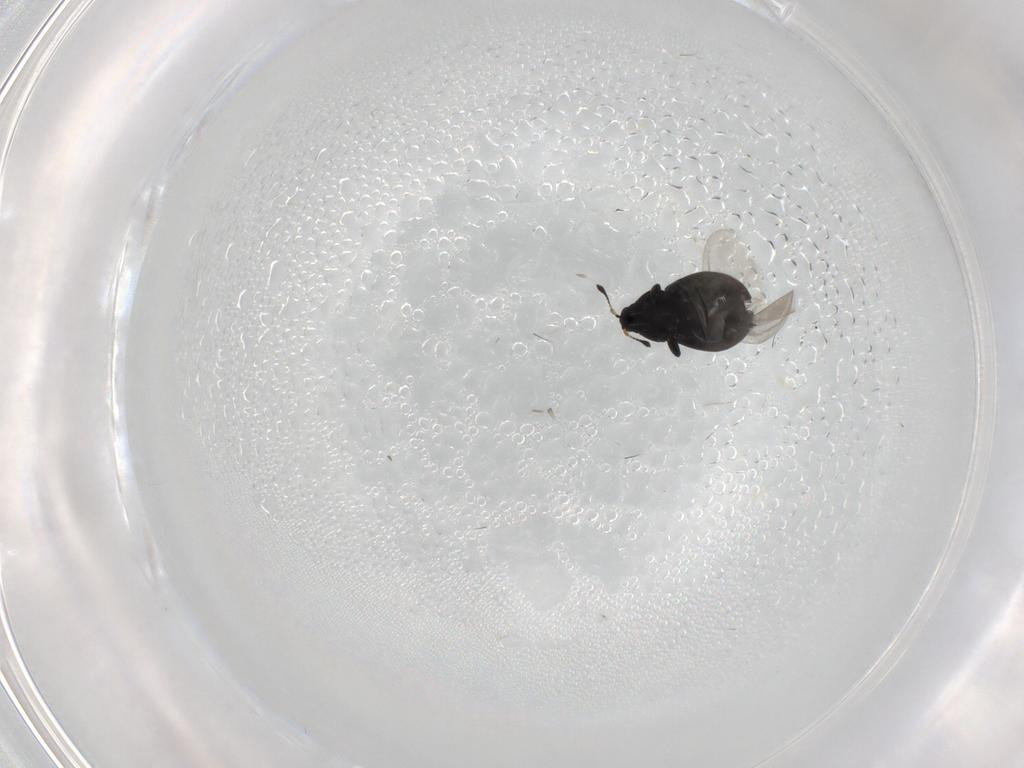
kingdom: Animalia
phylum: Arthropoda
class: Insecta
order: Coleoptera
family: Curculionidae
